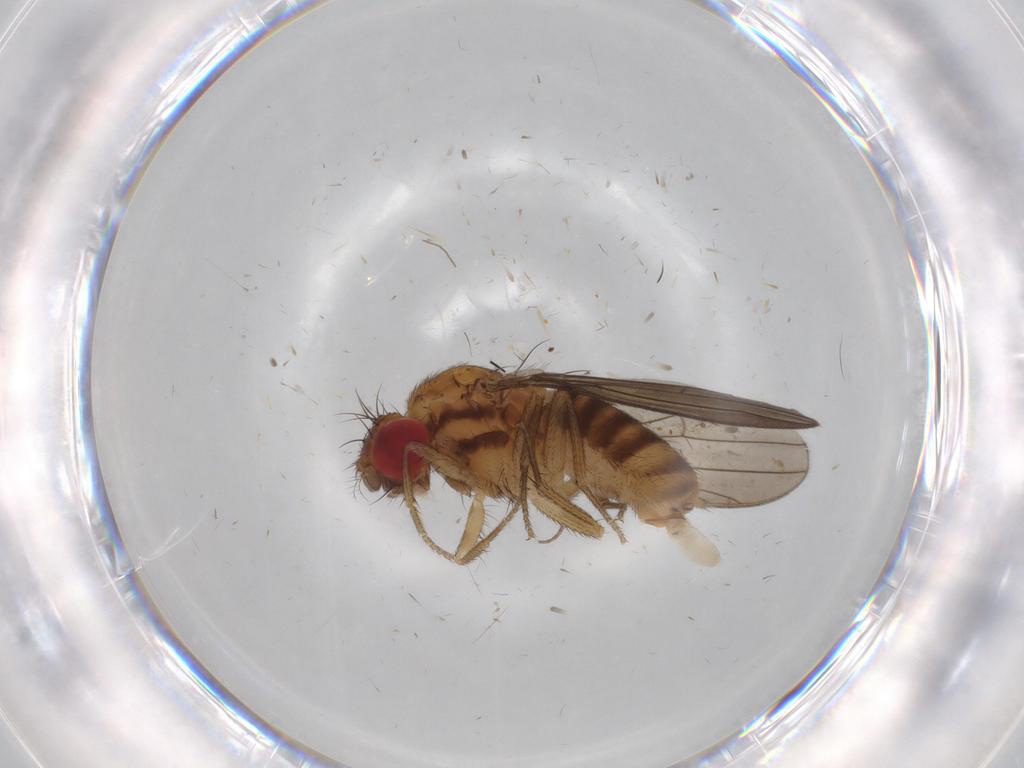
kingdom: Animalia
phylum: Arthropoda
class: Insecta
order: Diptera
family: Drosophilidae
